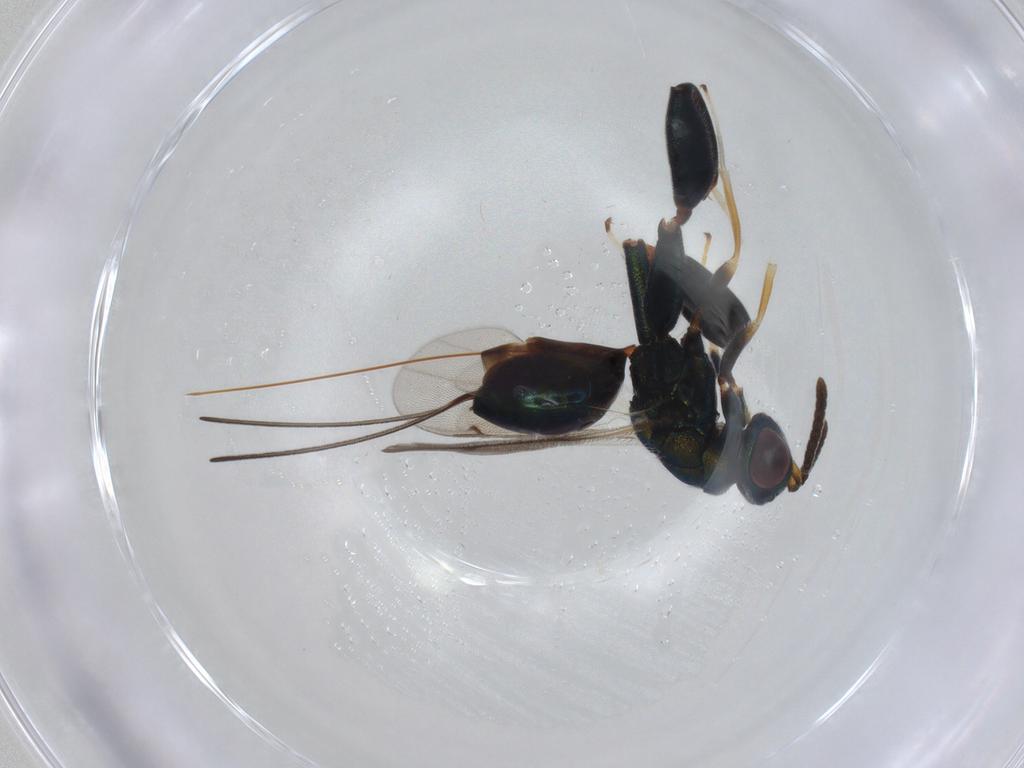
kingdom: Animalia
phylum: Arthropoda
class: Insecta
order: Hymenoptera
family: Torymidae
